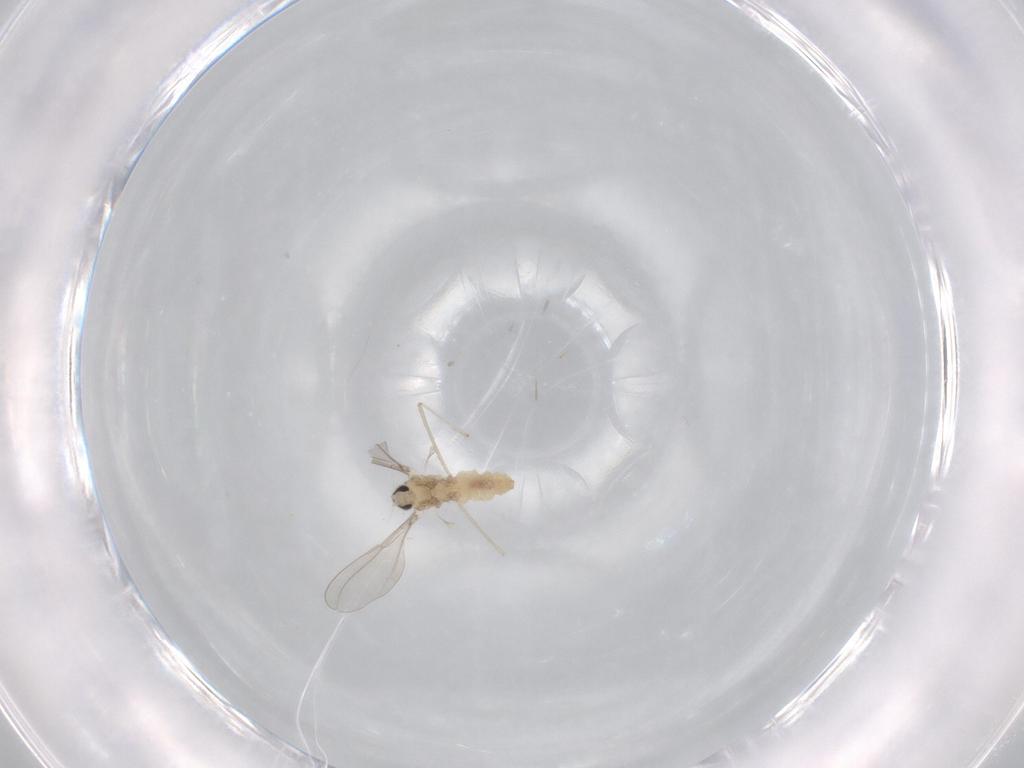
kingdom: Animalia
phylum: Arthropoda
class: Insecta
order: Diptera
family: Cecidomyiidae
